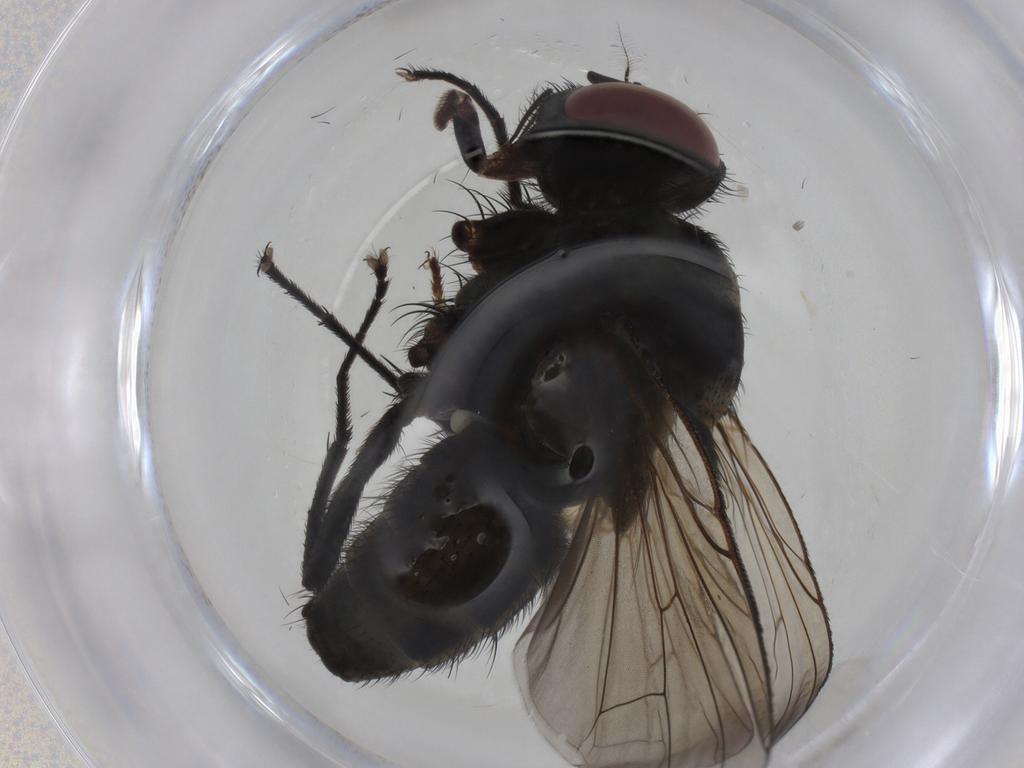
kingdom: Animalia
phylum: Arthropoda
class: Insecta
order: Diptera
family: Muscidae
